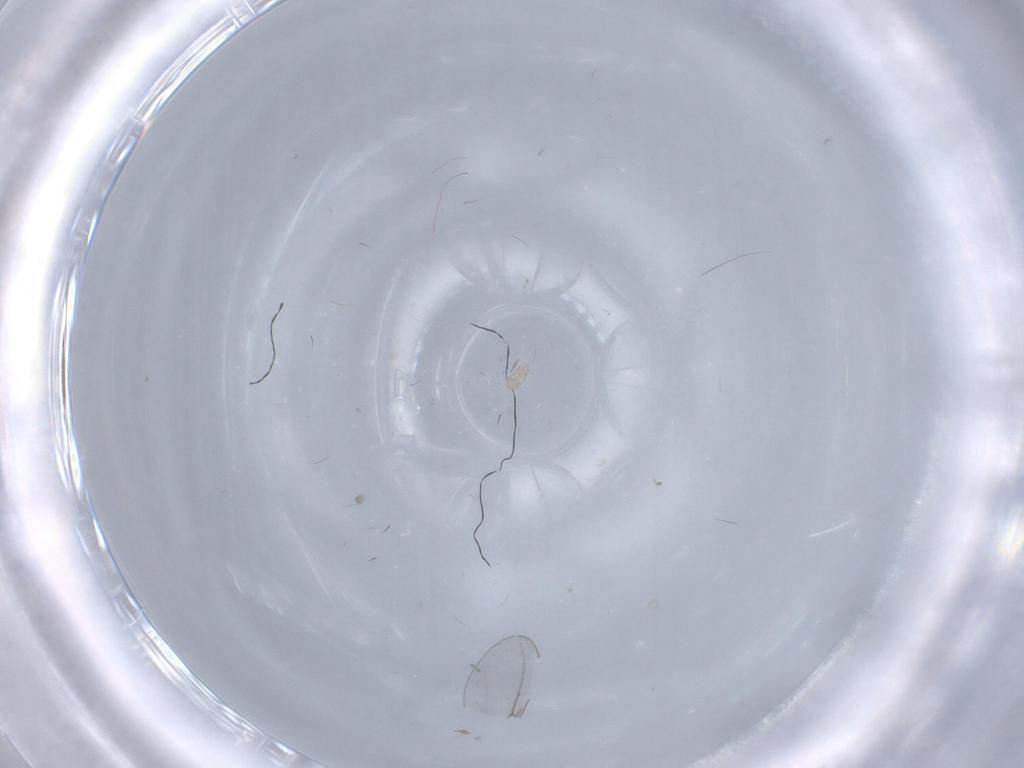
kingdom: Animalia
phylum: Arthropoda
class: Arachnida
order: Sarcoptiformes
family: Acaridae
